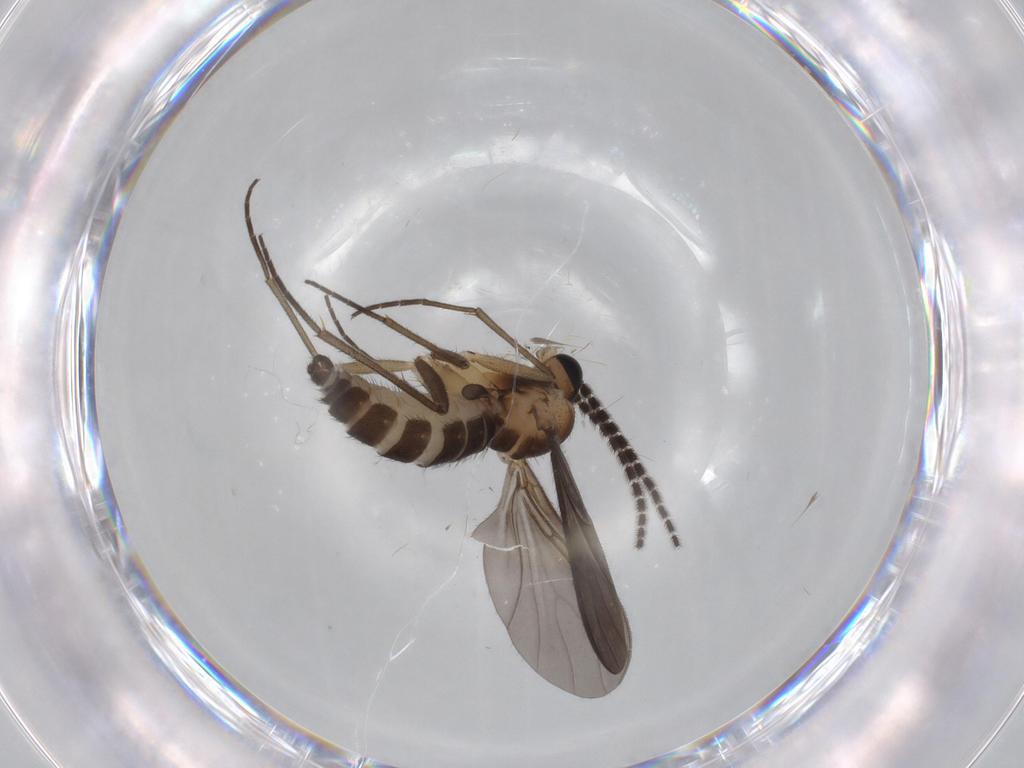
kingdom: Animalia
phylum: Arthropoda
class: Insecta
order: Diptera
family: Sciaridae
